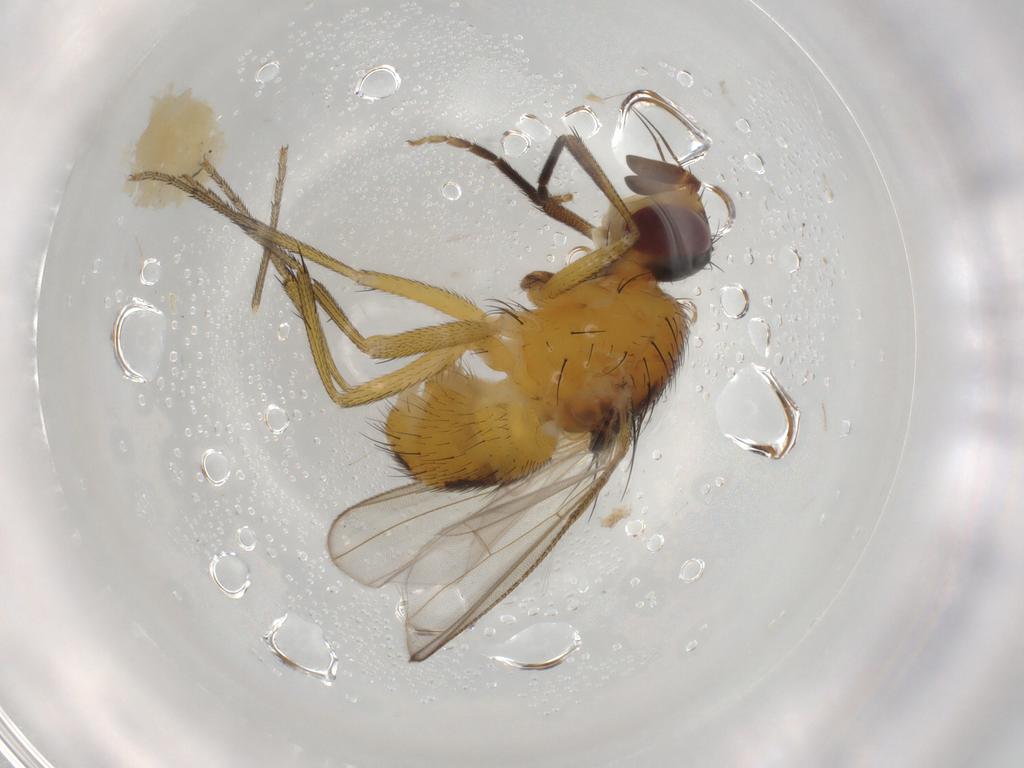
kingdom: Animalia
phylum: Arthropoda
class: Insecta
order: Diptera
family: Muscidae
